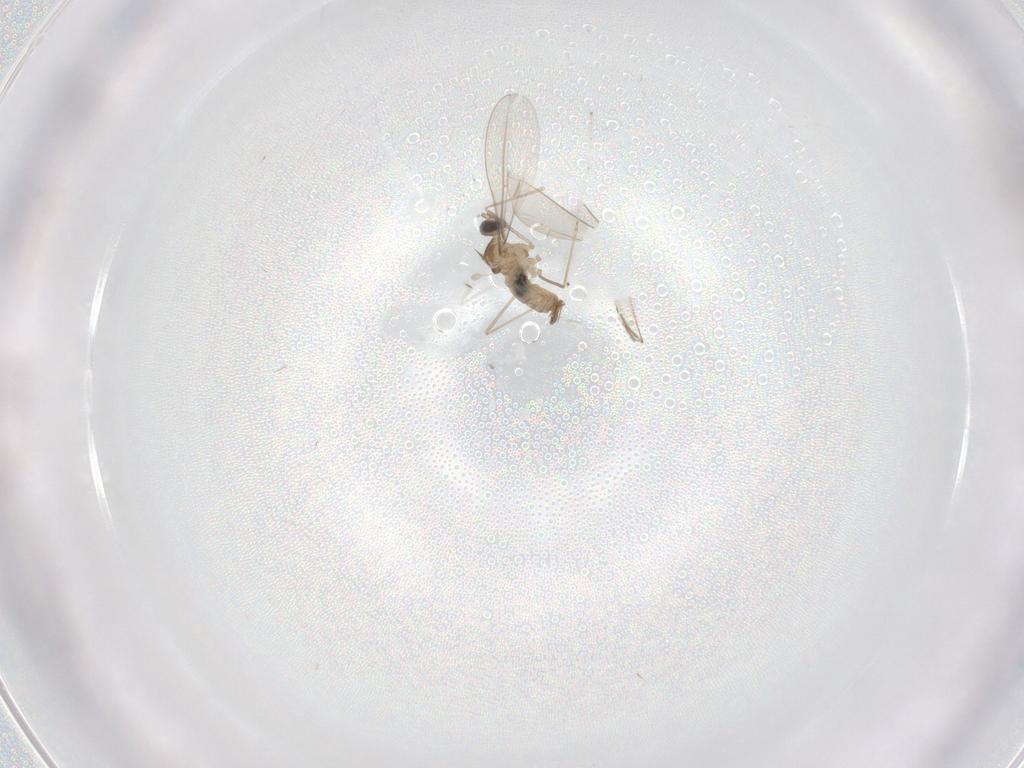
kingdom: Animalia
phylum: Arthropoda
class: Insecta
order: Diptera
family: Cecidomyiidae
